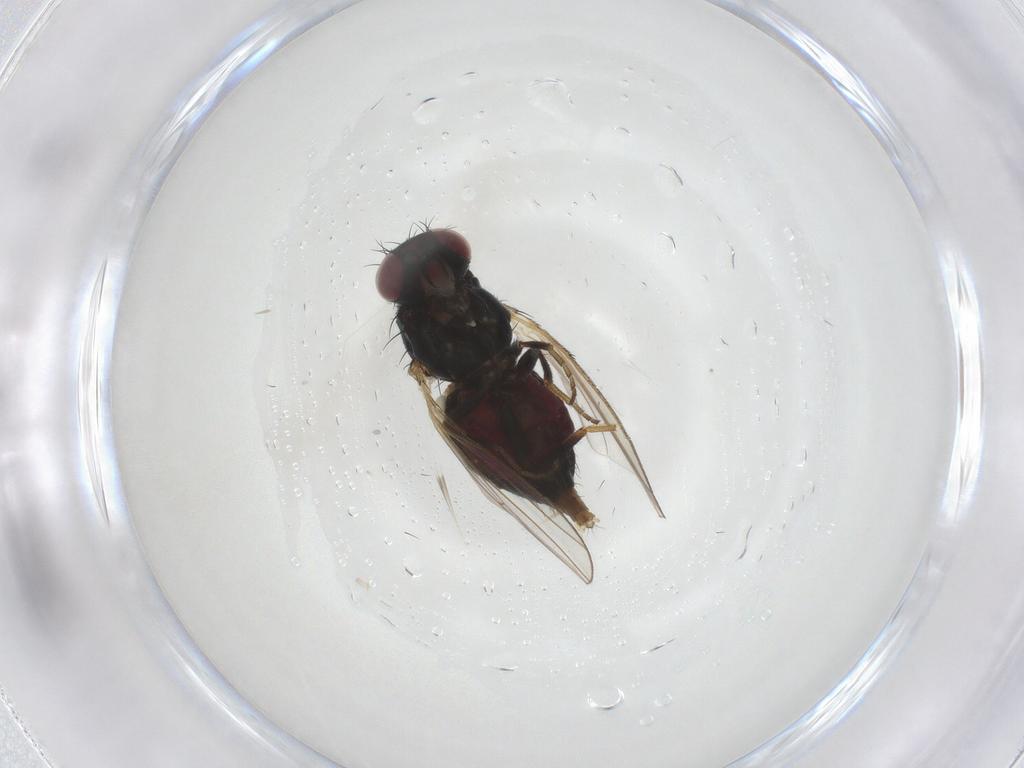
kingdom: Animalia
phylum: Arthropoda
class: Insecta
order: Diptera
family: Carnidae
